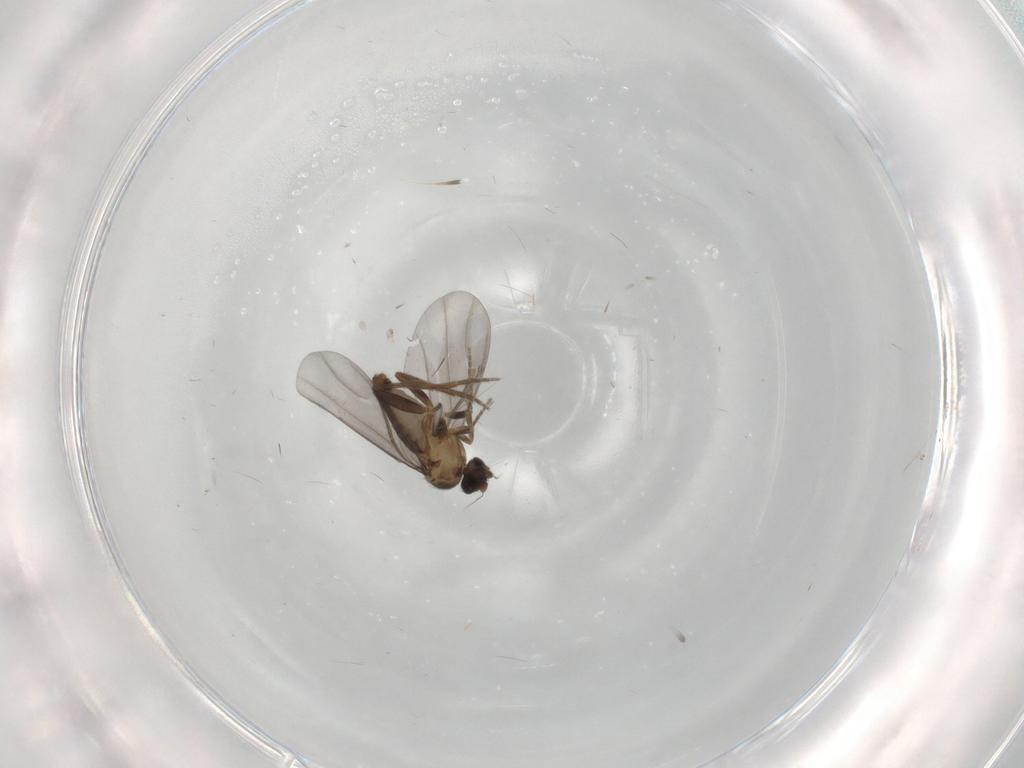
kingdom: Animalia
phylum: Arthropoda
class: Insecta
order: Diptera
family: Phoridae
